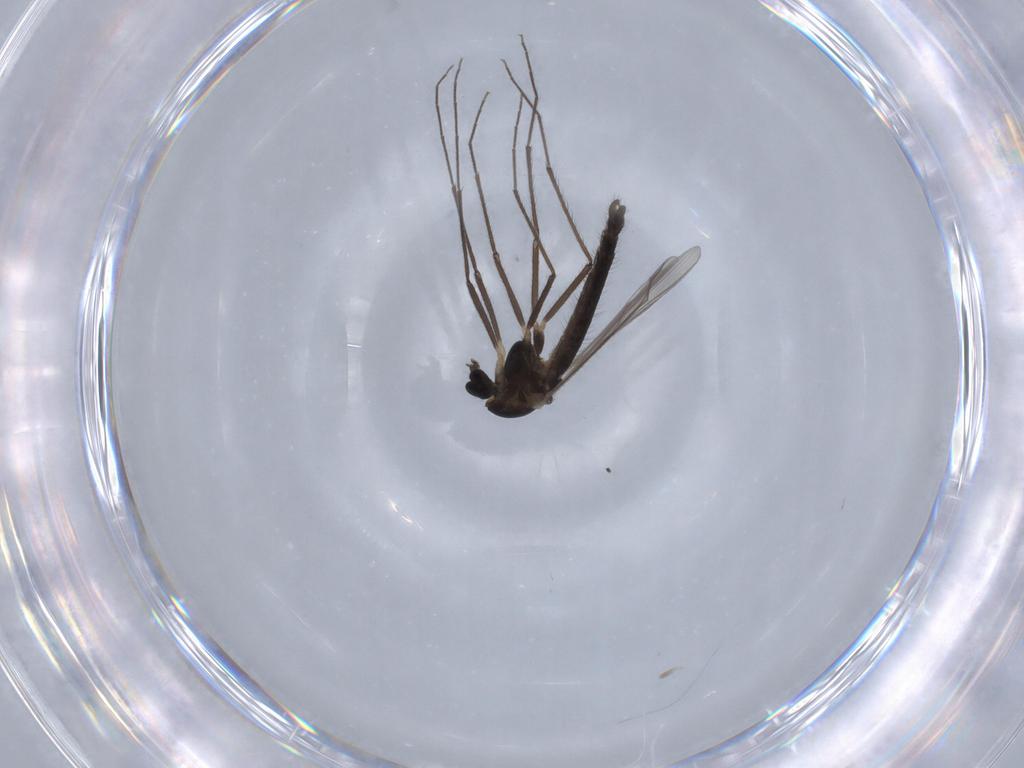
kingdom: Animalia
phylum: Arthropoda
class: Insecta
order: Diptera
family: Chironomidae
